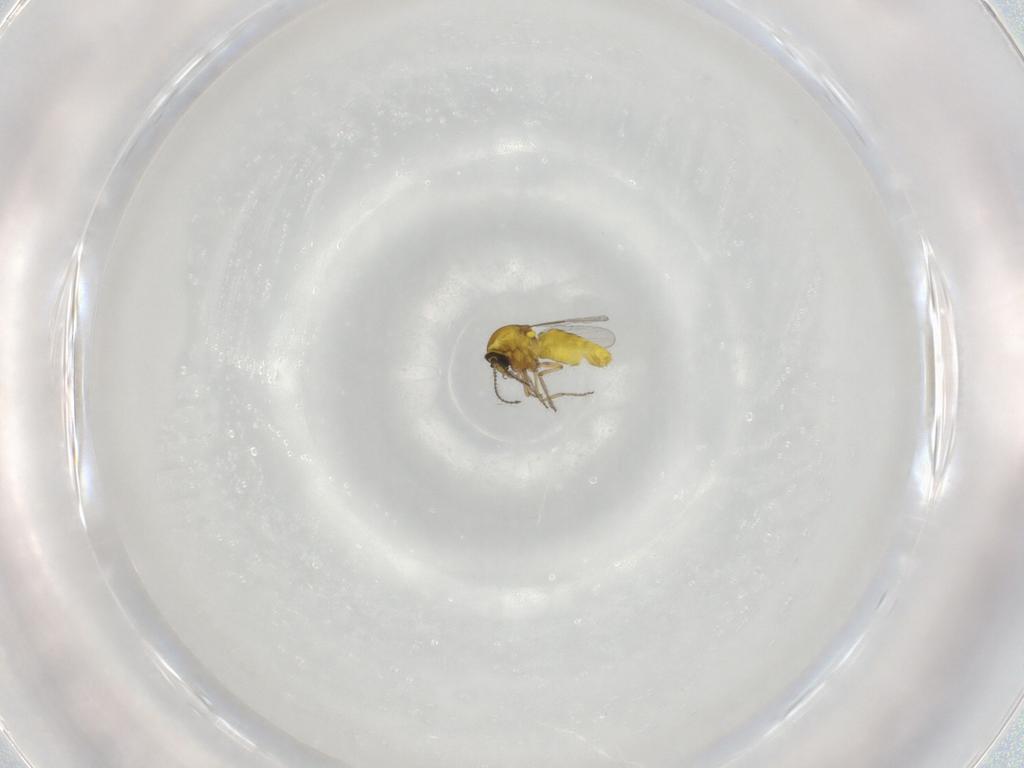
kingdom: Animalia
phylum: Arthropoda
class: Insecta
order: Diptera
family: Ceratopogonidae
